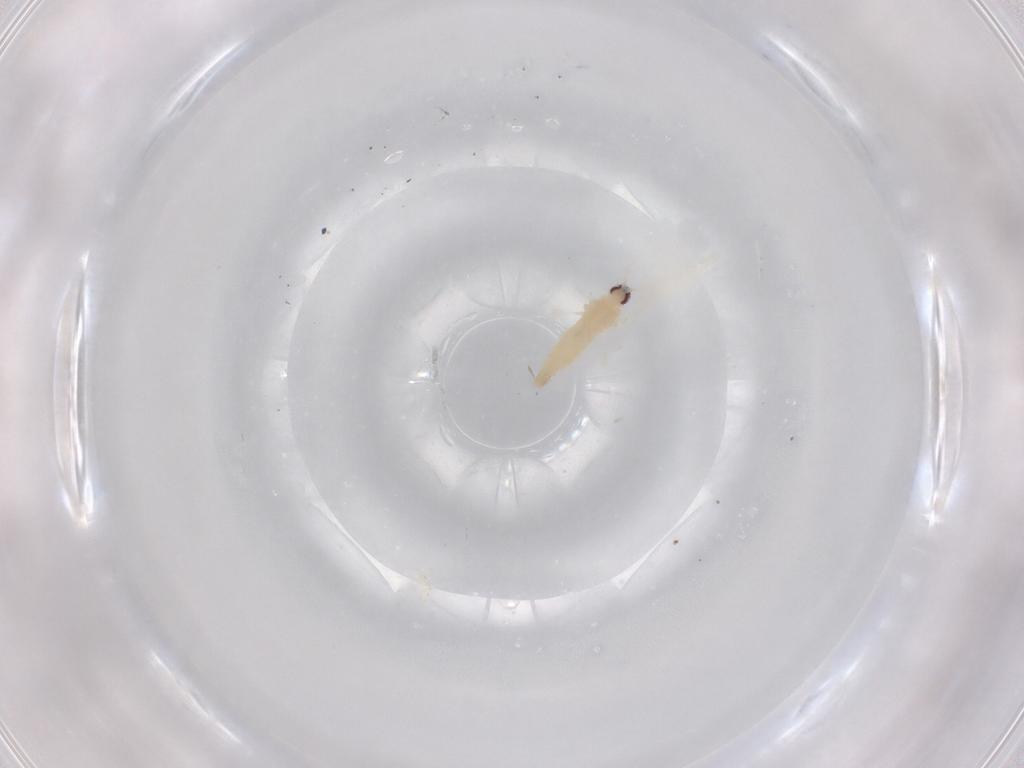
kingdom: Animalia
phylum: Arthropoda
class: Insecta
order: Diptera
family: Cecidomyiidae
